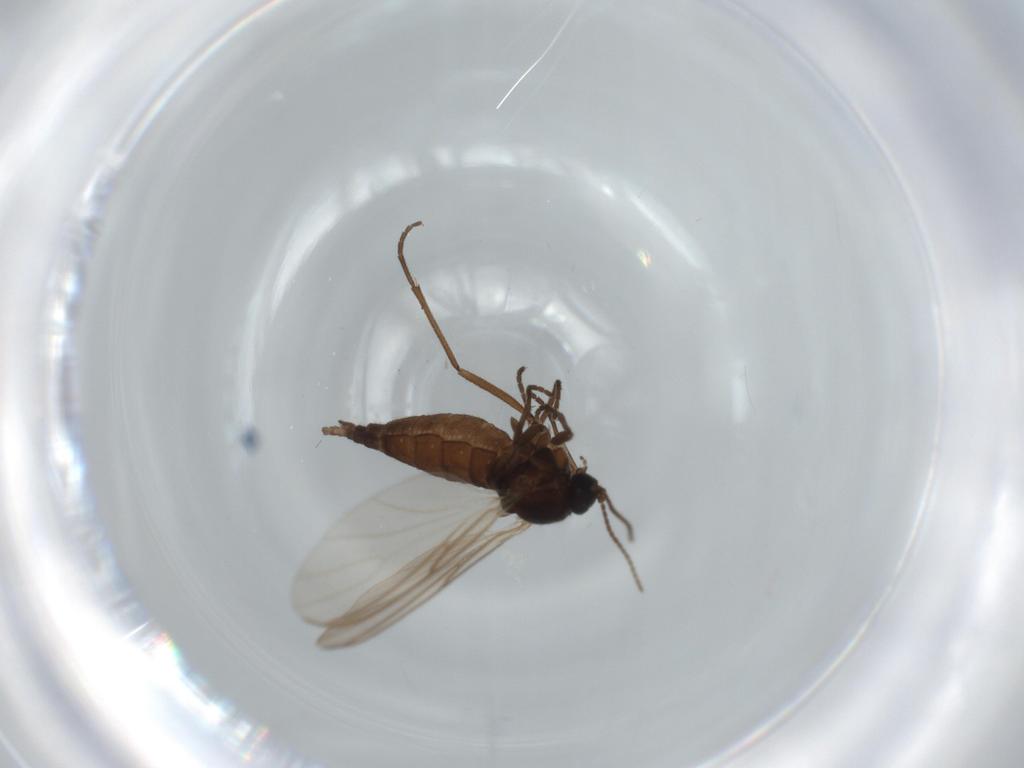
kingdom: Animalia
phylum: Arthropoda
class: Insecta
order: Diptera
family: Sciaridae
